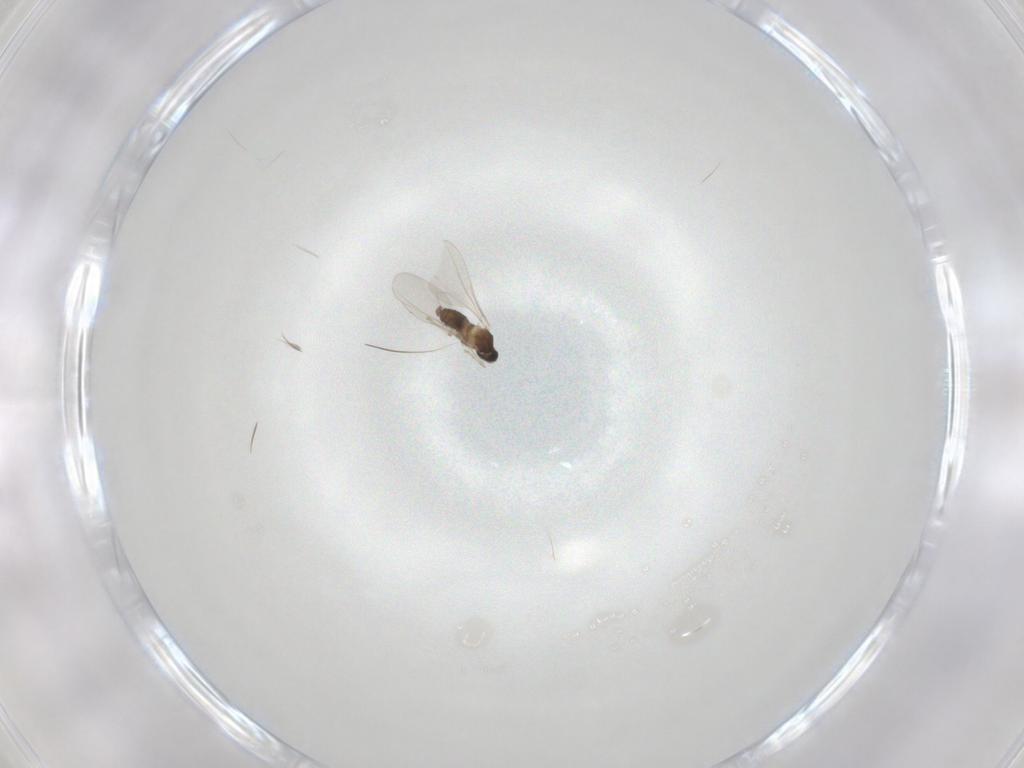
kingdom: Animalia
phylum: Arthropoda
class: Insecta
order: Diptera
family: Cecidomyiidae
